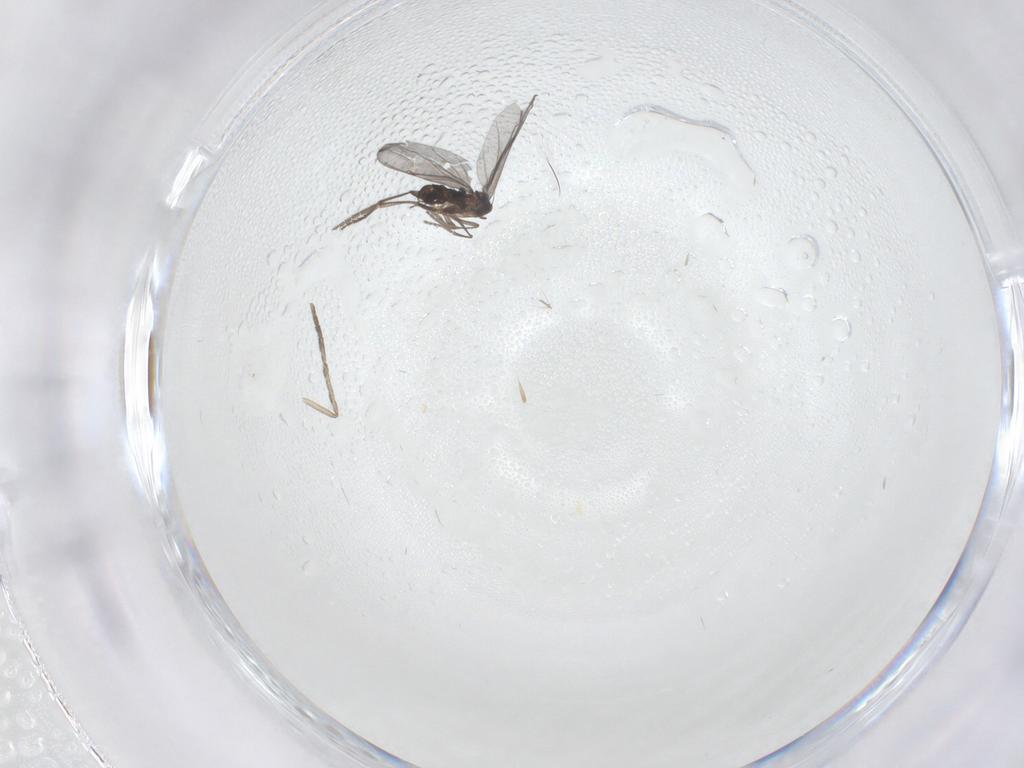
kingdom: Animalia
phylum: Arthropoda
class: Insecta
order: Diptera
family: Chironomidae
